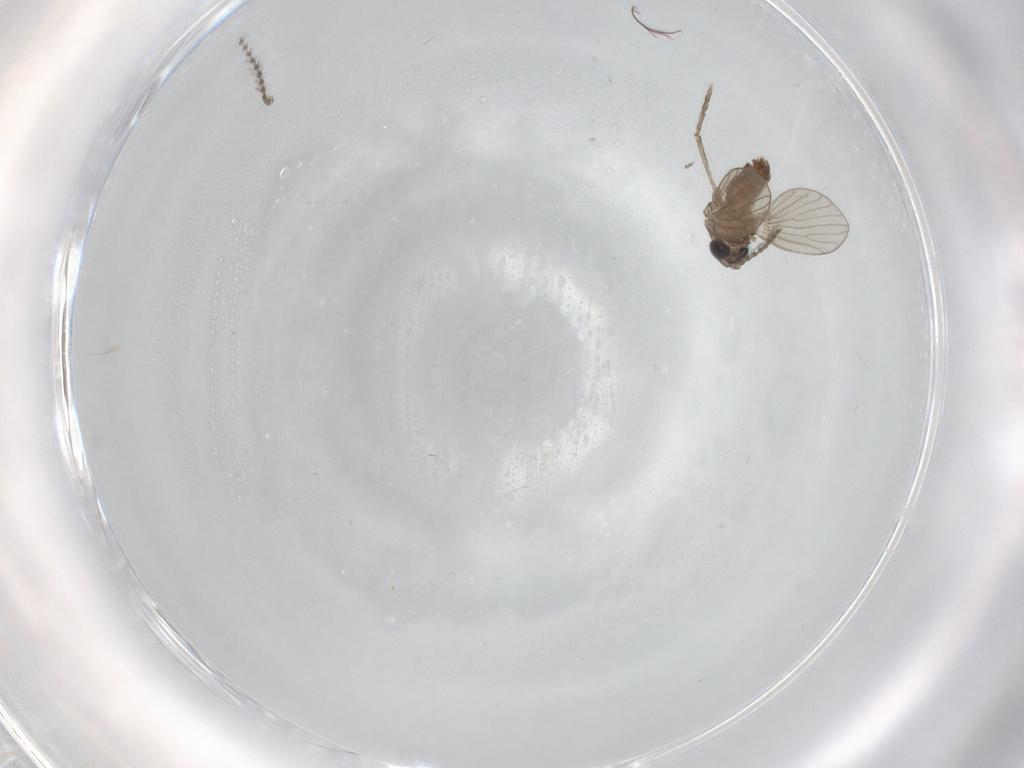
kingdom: Animalia
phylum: Arthropoda
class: Insecta
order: Diptera
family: Psychodidae
